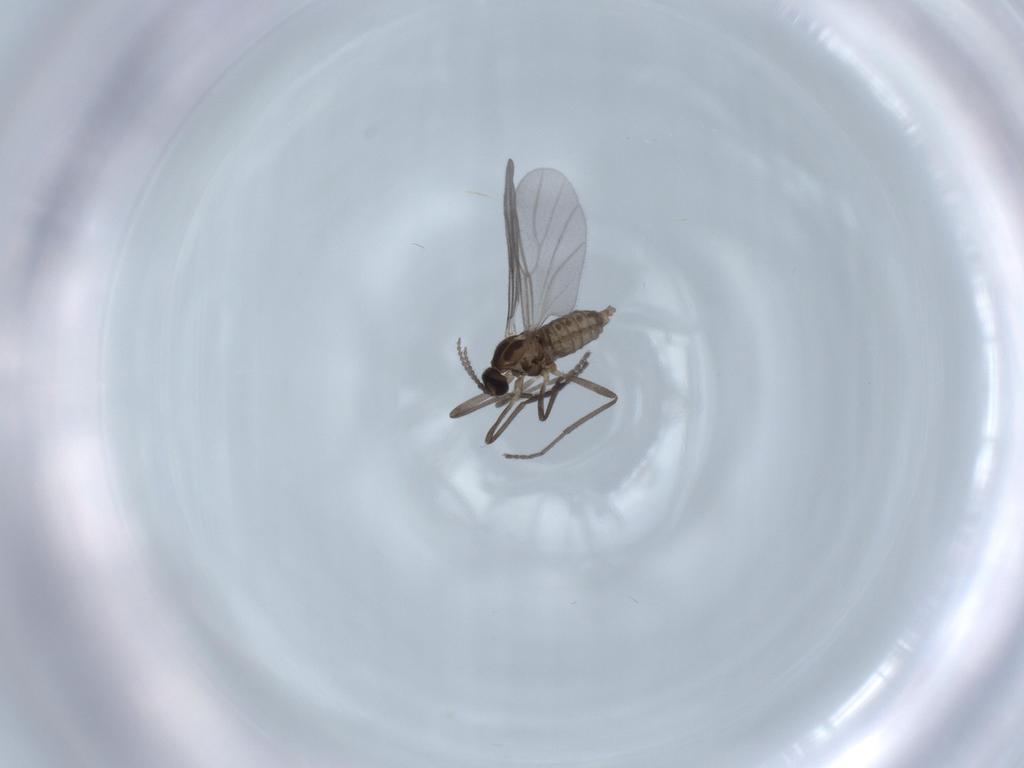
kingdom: Animalia
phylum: Arthropoda
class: Insecta
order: Diptera
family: Cecidomyiidae
